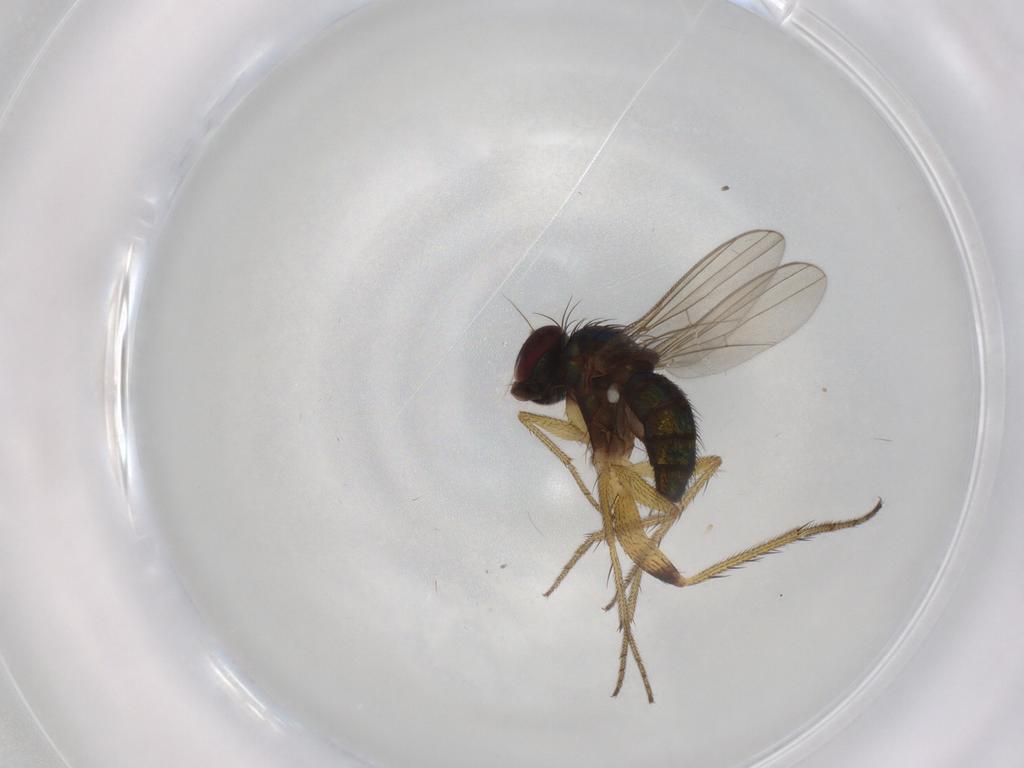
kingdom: Animalia
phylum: Arthropoda
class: Insecta
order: Diptera
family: Dolichopodidae
